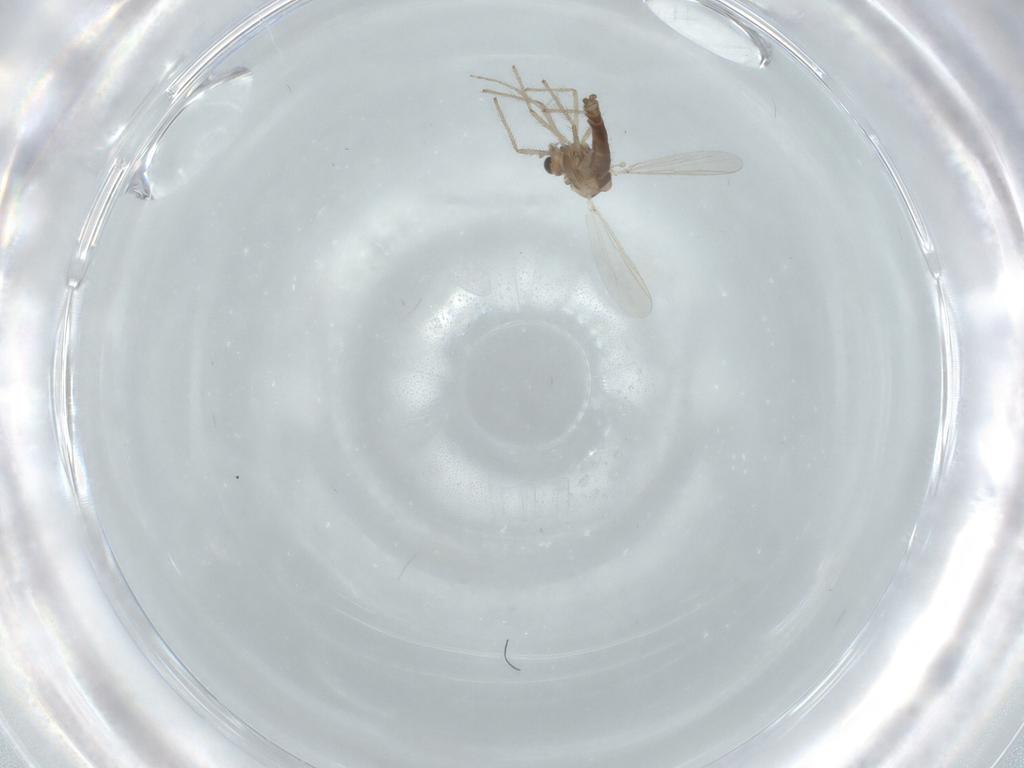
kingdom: Animalia
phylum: Arthropoda
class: Insecta
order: Diptera
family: Chironomidae
